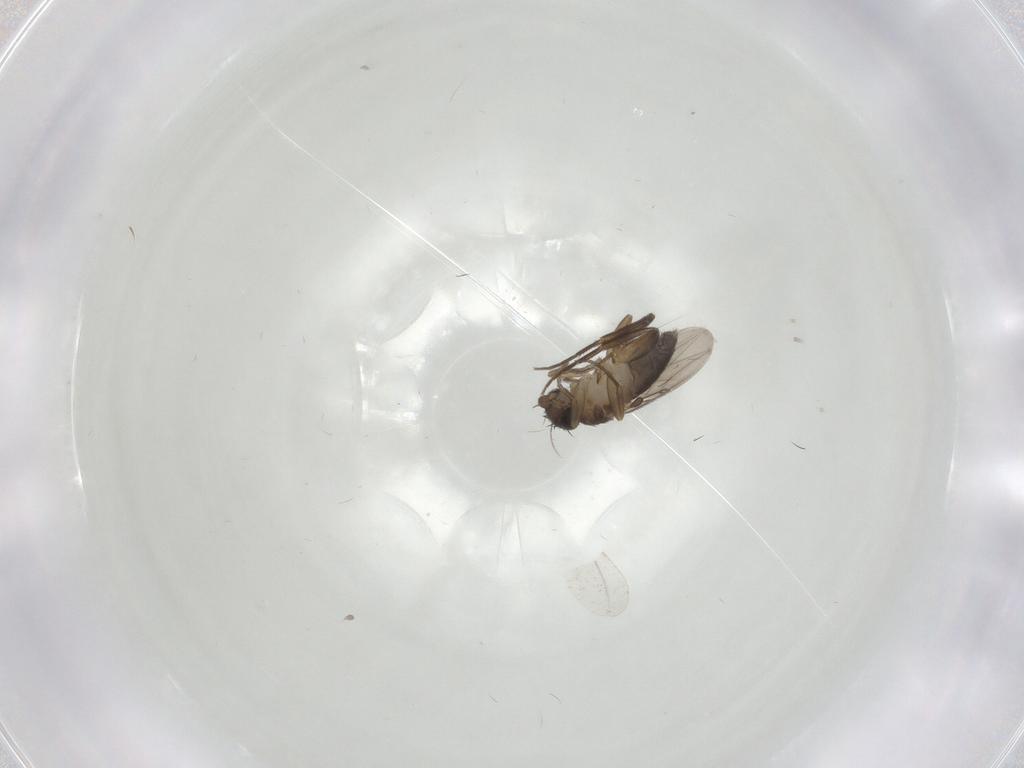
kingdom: Animalia
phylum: Arthropoda
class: Insecta
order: Diptera
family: Phoridae
